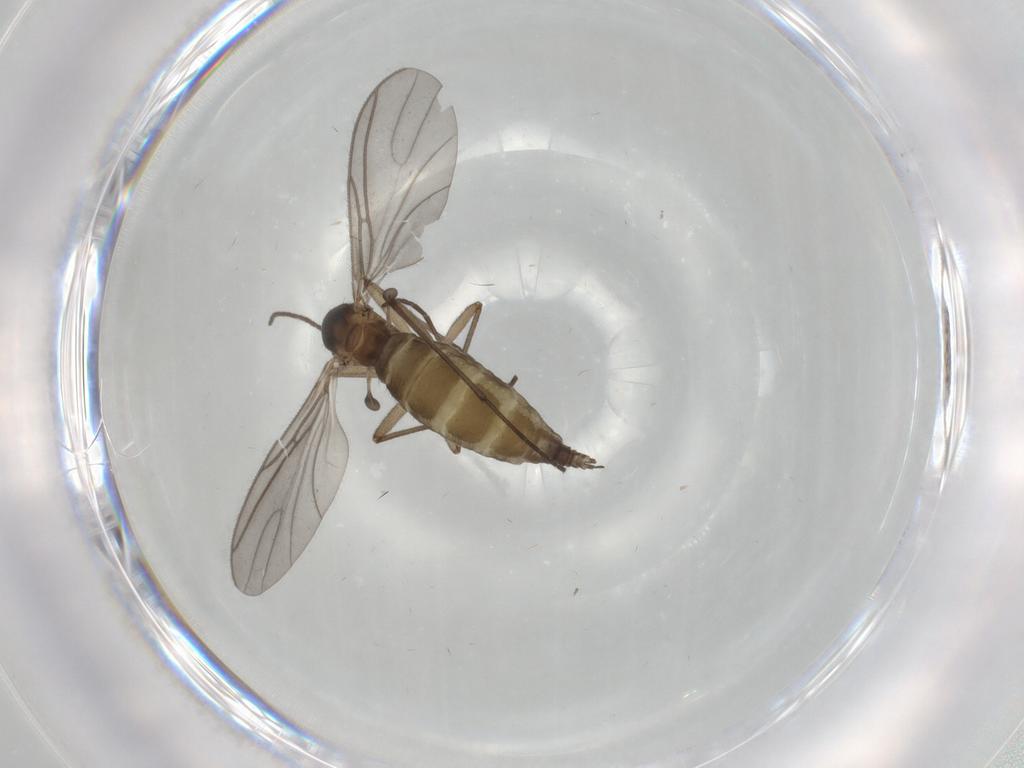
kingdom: Animalia
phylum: Arthropoda
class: Insecta
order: Diptera
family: Cecidomyiidae
